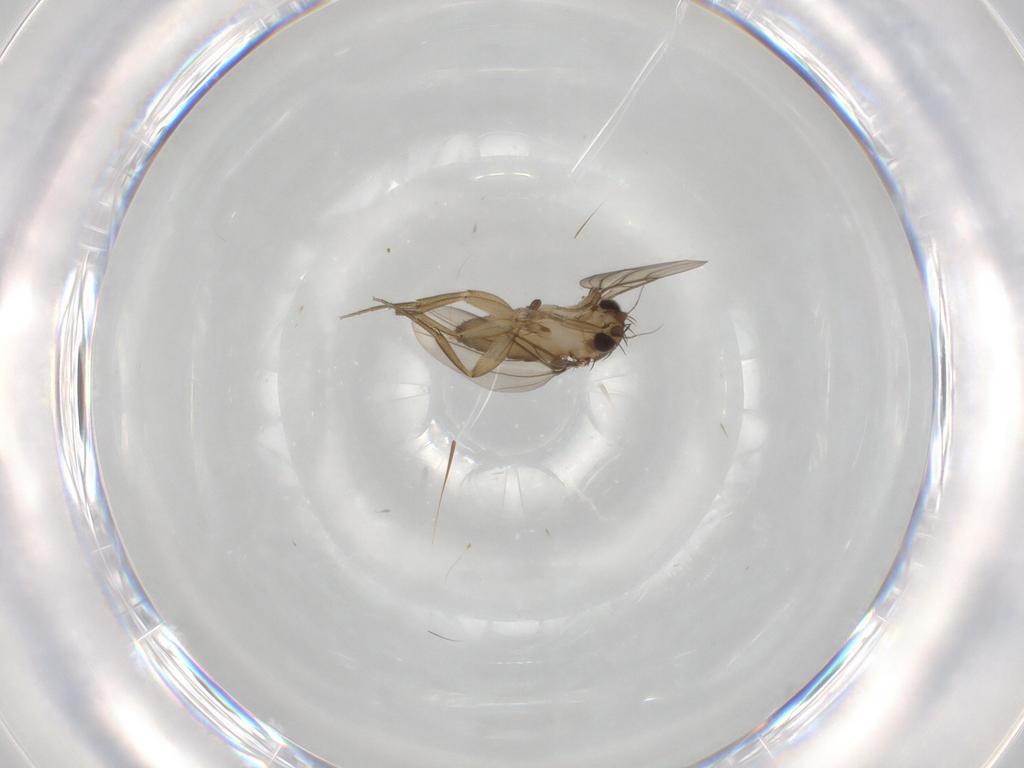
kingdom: Animalia
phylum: Arthropoda
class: Insecta
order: Diptera
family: Phoridae
